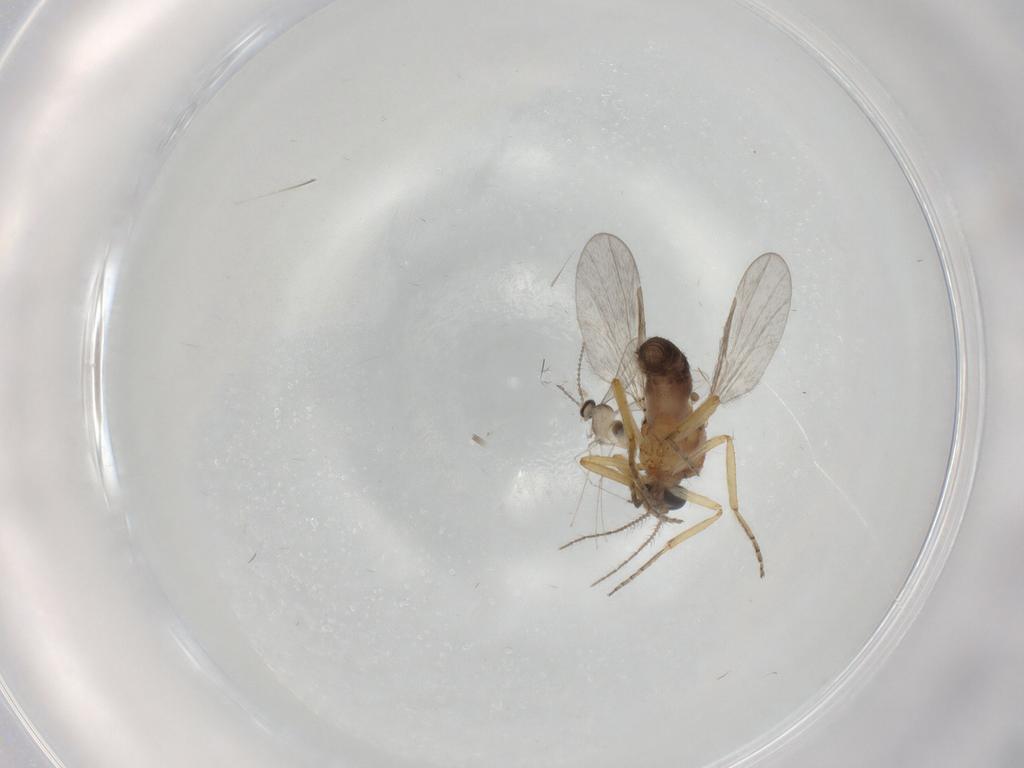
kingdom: Animalia
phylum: Arthropoda
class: Insecta
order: Diptera
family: Cecidomyiidae
